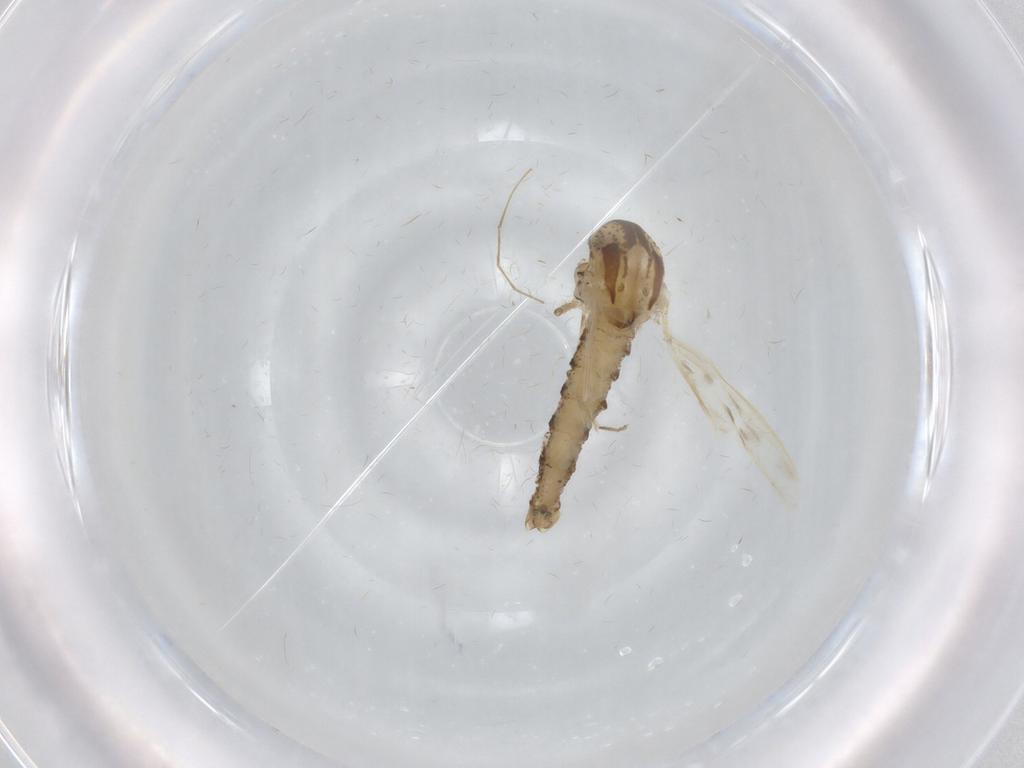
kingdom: Animalia
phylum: Arthropoda
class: Insecta
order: Diptera
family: Chaoboridae
